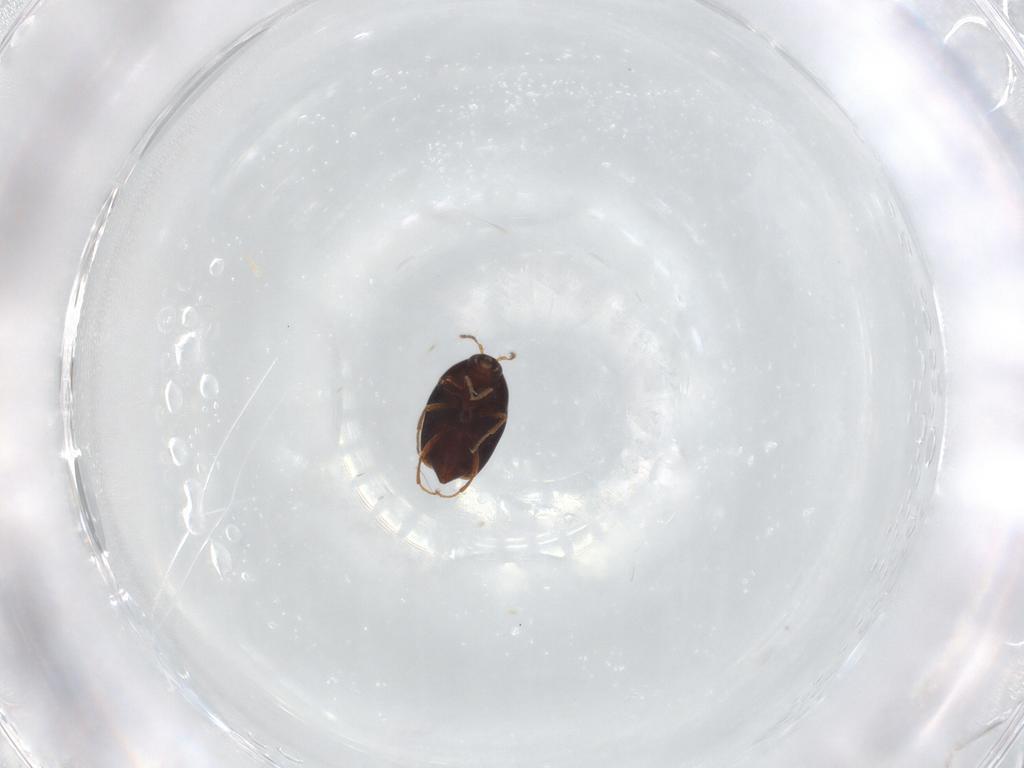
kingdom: Animalia
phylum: Arthropoda
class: Insecta
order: Coleoptera
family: Staphylinidae
